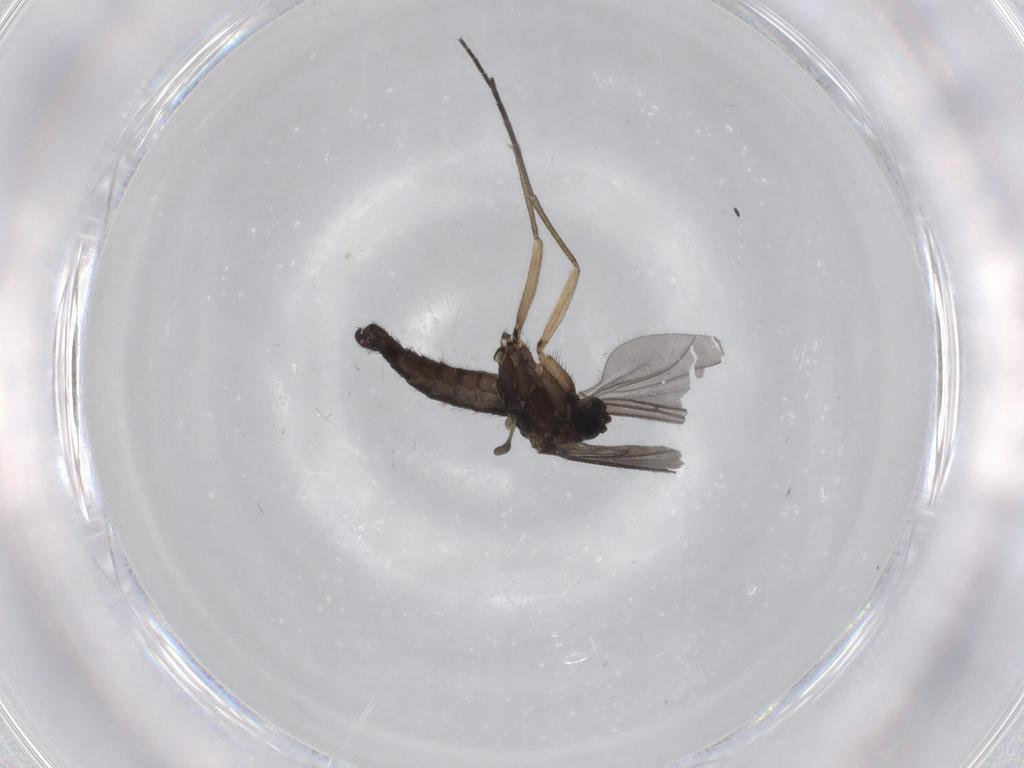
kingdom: Animalia
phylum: Arthropoda
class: Insecta
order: Diptera
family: Sciaridae
